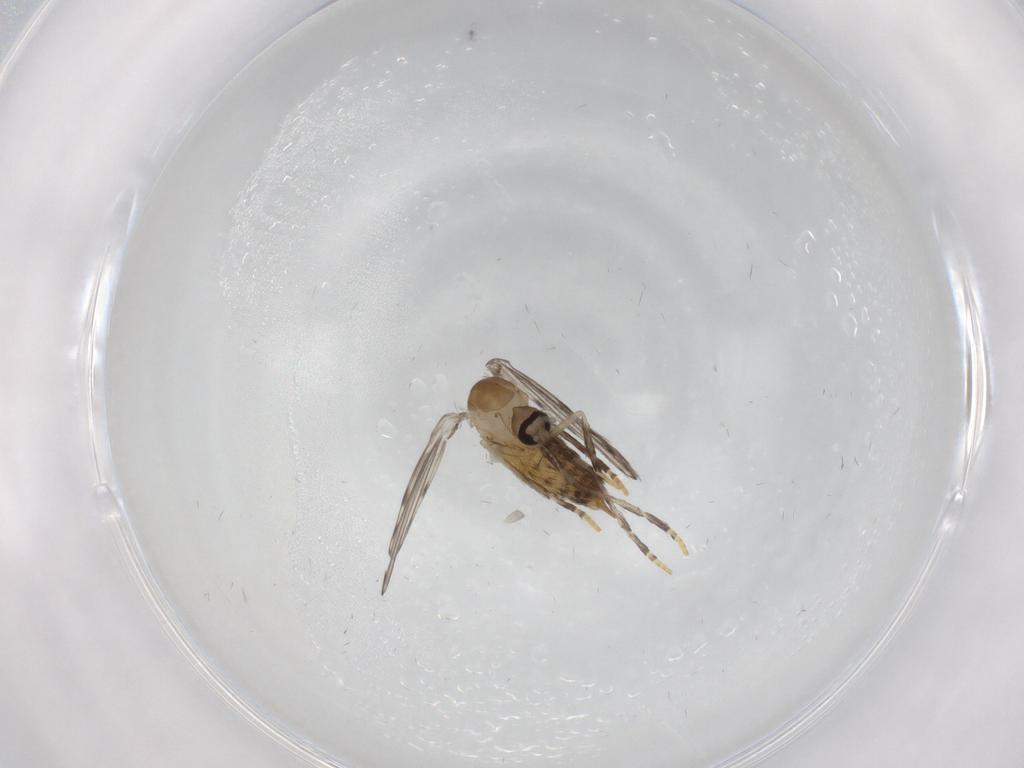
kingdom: Animalia
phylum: Arthropoda
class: Insecta
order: Diptera
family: Psychodidae
